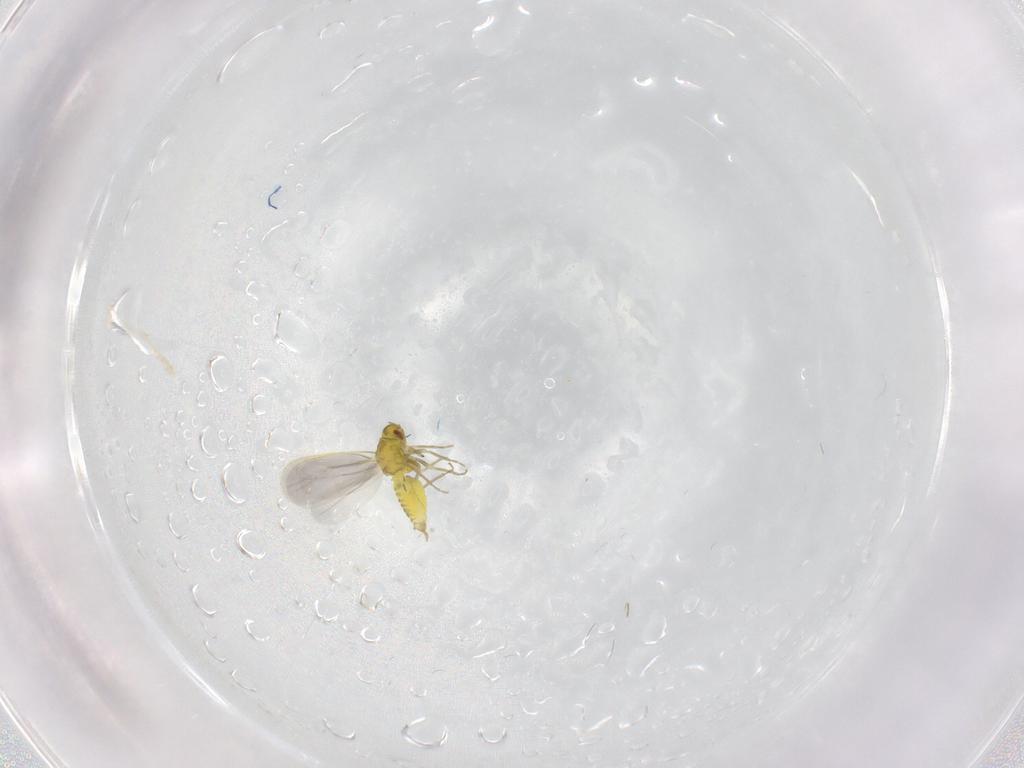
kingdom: Animalia
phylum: Arthropoda
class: Insecta
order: Hemiptera
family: Aleyrodidae
